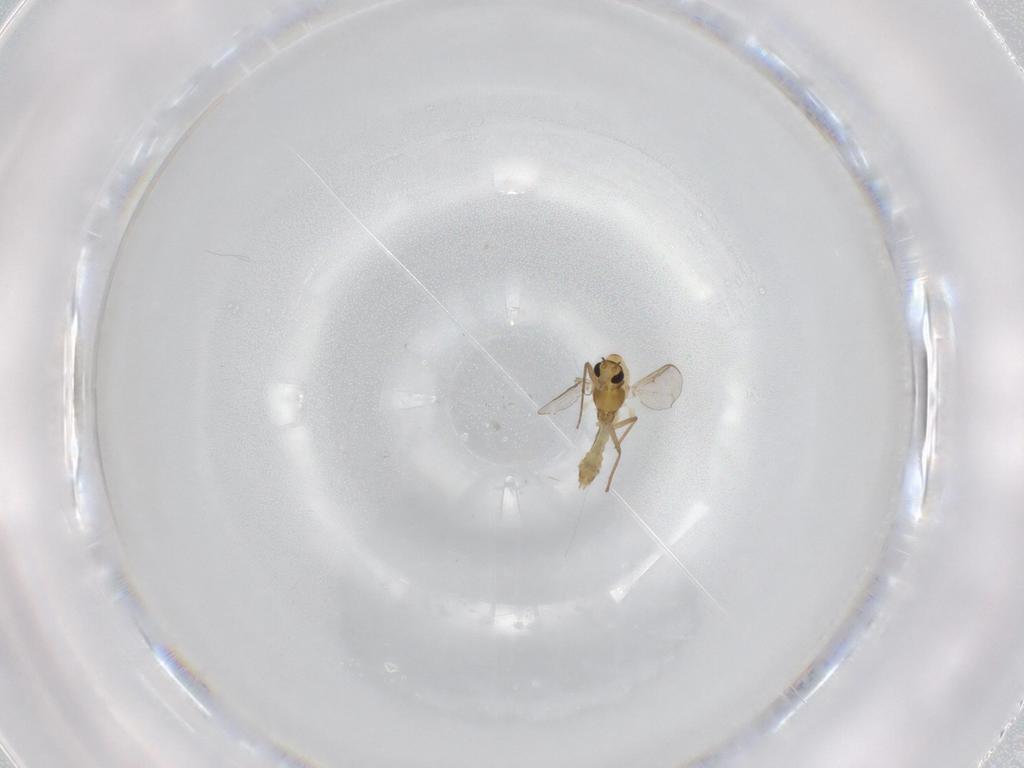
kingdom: Animalia
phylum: Arthropoda
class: Insecta
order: Diptera
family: Chironomidae
